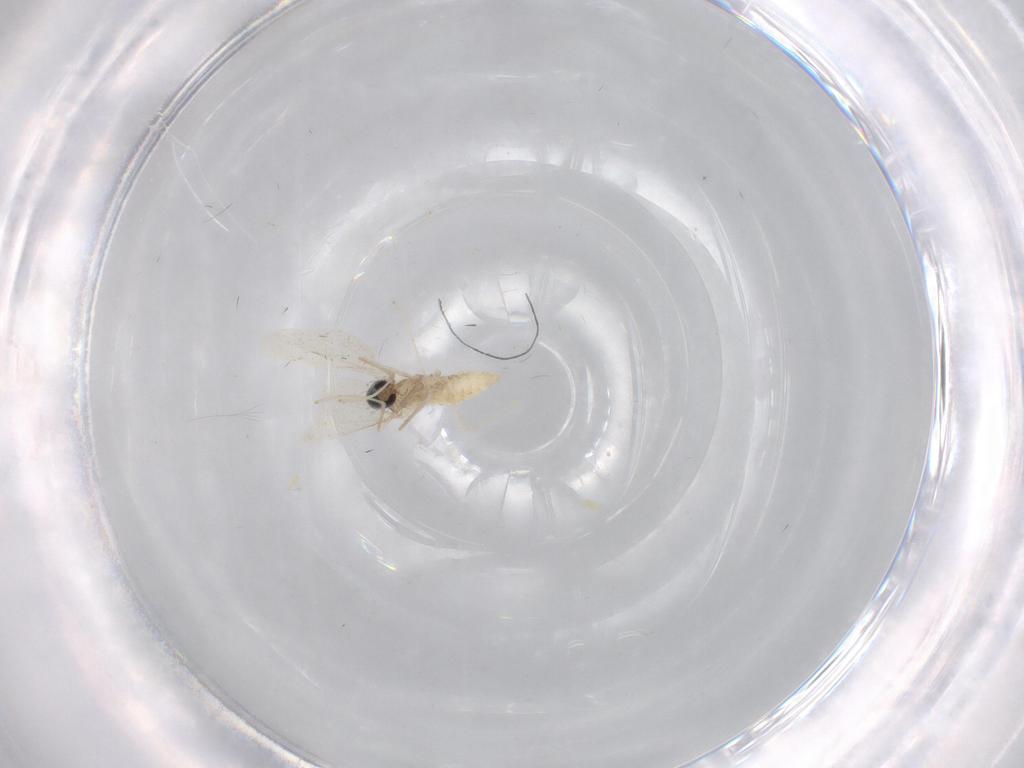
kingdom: Animalia
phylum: Arthropoda
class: Insecta
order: Diptera
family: Cecidomyiidae
